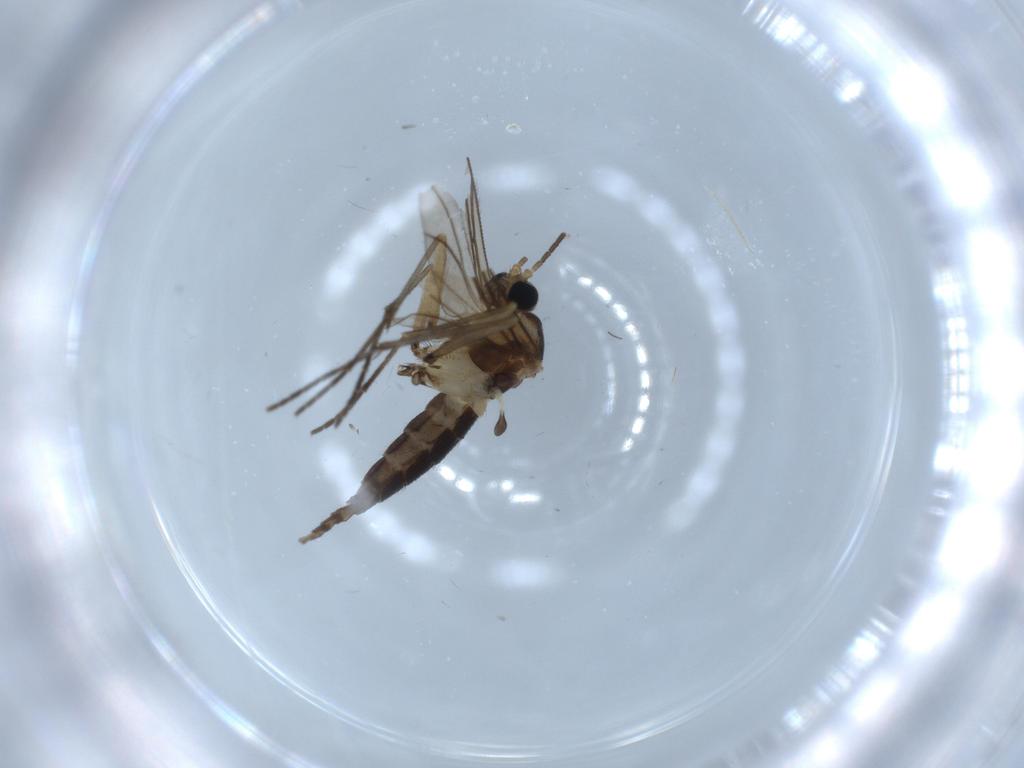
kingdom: Animalia
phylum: Arthropoda
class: Insecta
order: Diptera
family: Sciaridae
